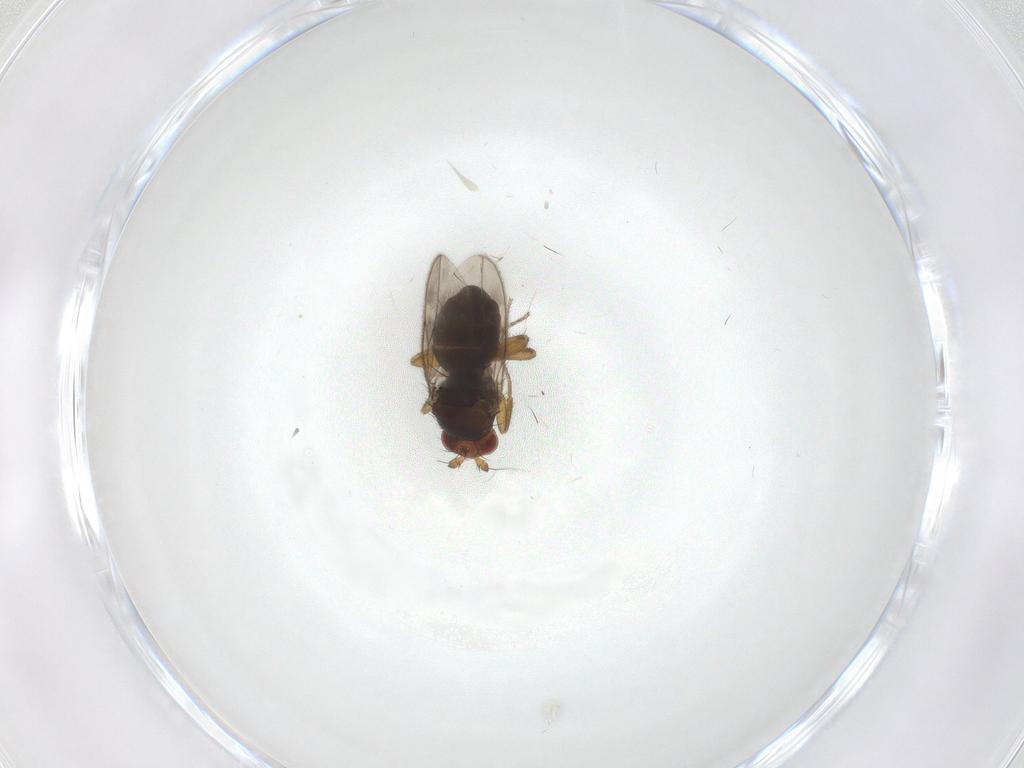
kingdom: Animalia
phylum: Arthropoda
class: Insecta
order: Diptera
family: Sphaeroceridae
